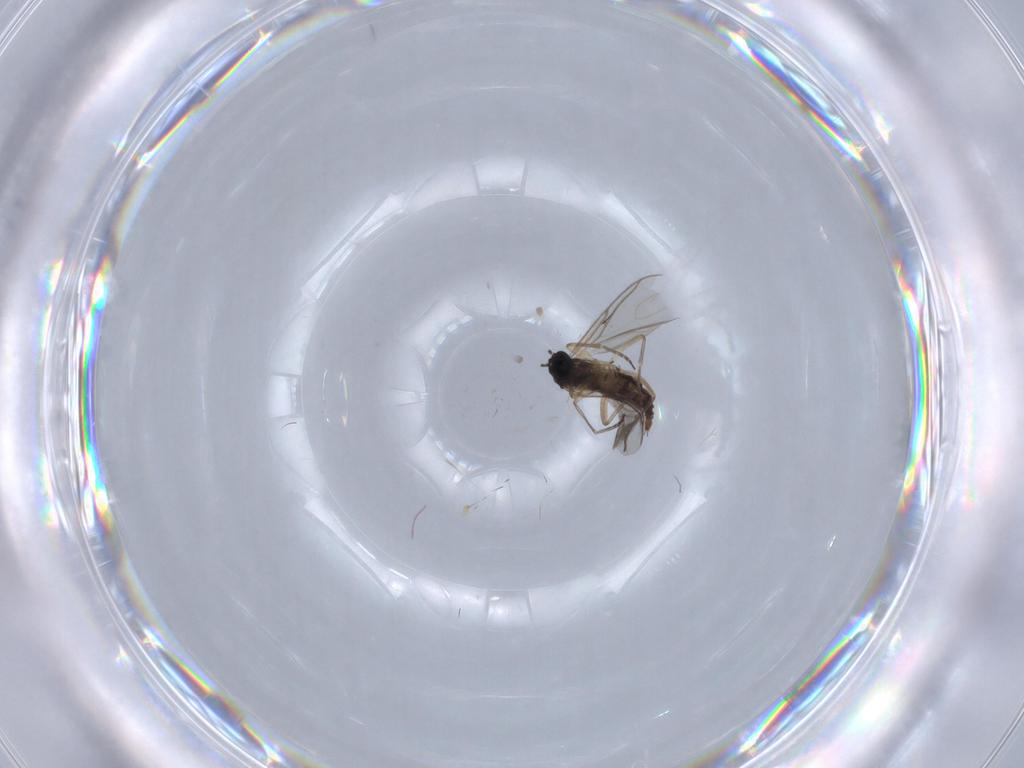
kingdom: Animalia
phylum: Arthropoda
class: Insecta
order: Diptera
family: Sciaridae
